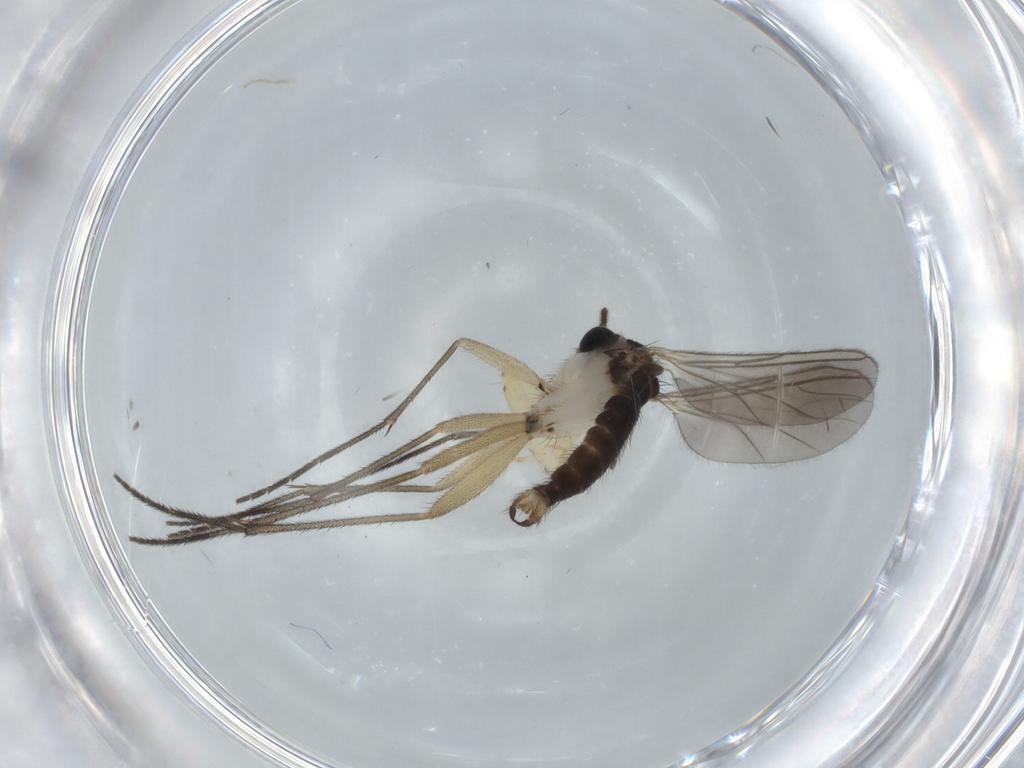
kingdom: Animalia
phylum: Arthropoda
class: Insecta
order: Diptera
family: Sciaridae
